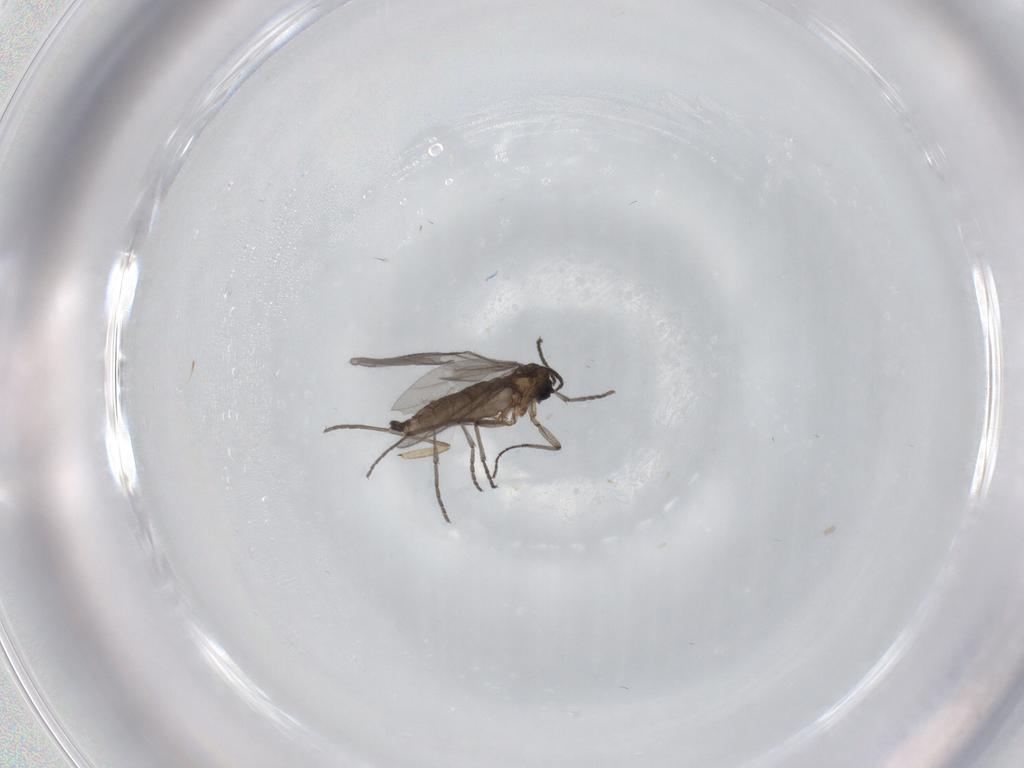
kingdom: Animalia
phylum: Arthropoda
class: Insecta
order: Diptera
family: Sciaridae
